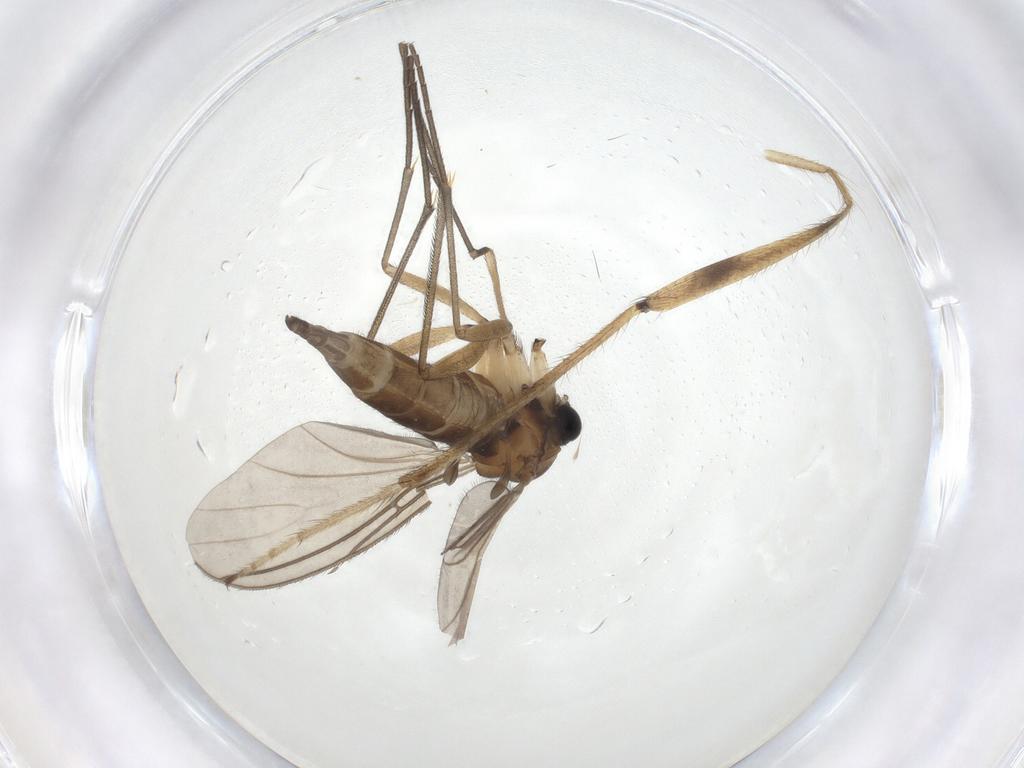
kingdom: Animalia
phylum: Arthropoda
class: Insecta
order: Diptera
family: Limoniidae
